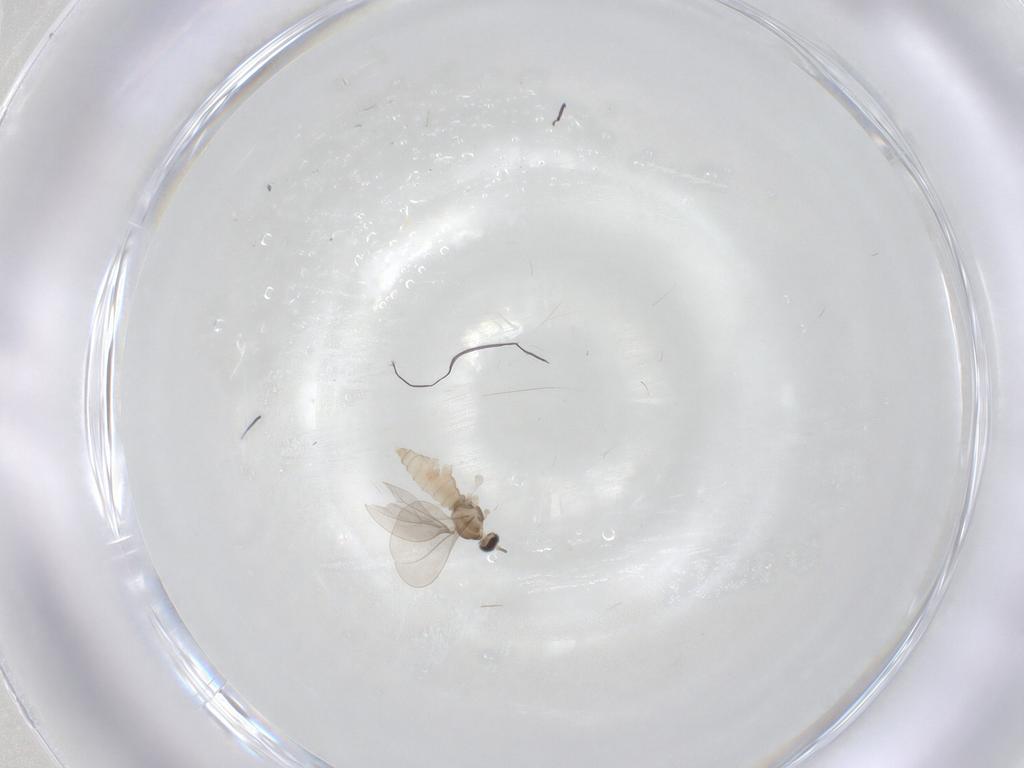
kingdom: Animalia
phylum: Arthropoda
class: Insecta
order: Diptera
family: Cecidomyiidae
